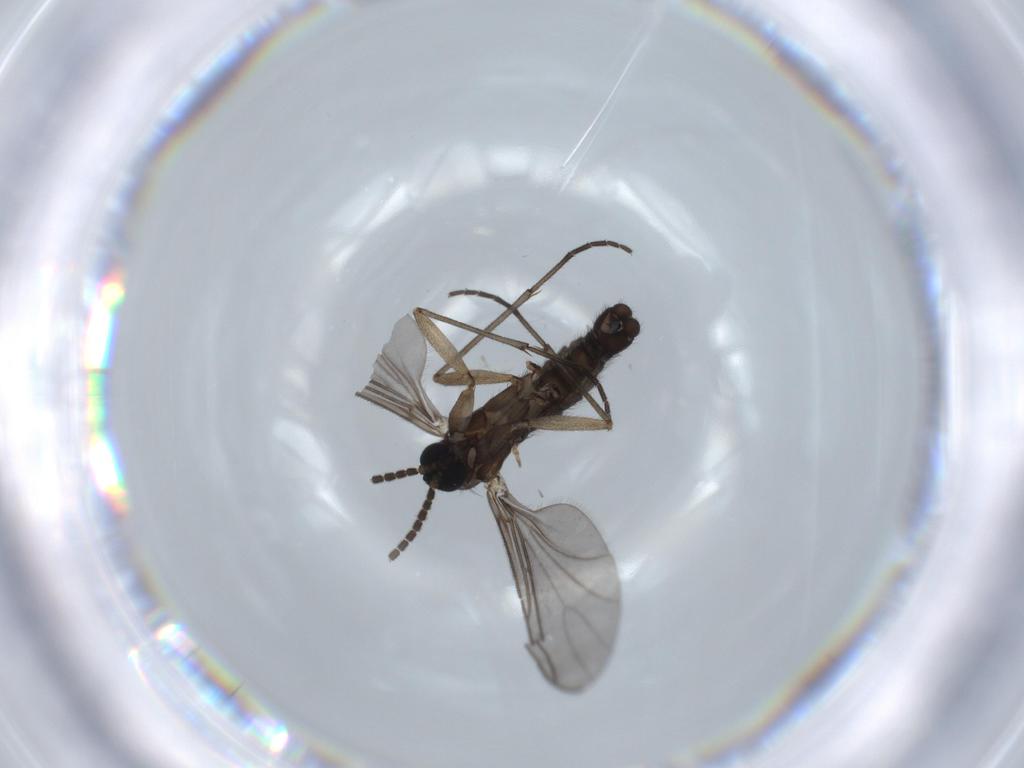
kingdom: Animalia
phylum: Arthropoda
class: Insecta
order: Diptera
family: Sciaridae
